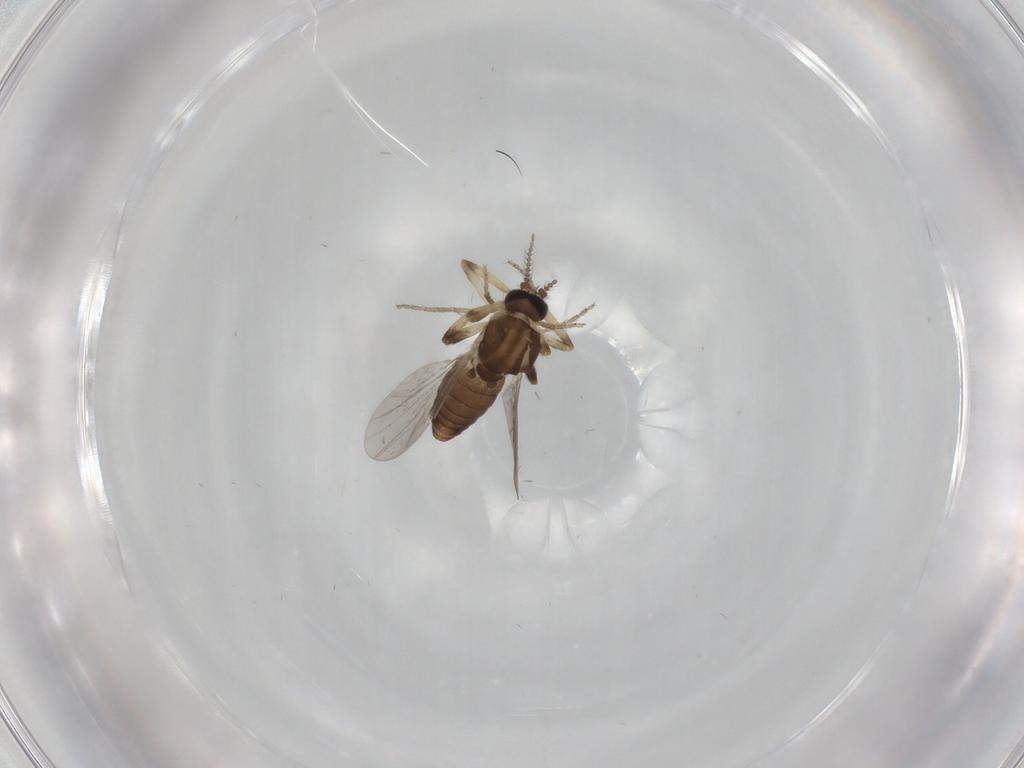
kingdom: Animalia
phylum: Arthropoda
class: Insecta
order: Diptera
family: Ceratopogonidae
